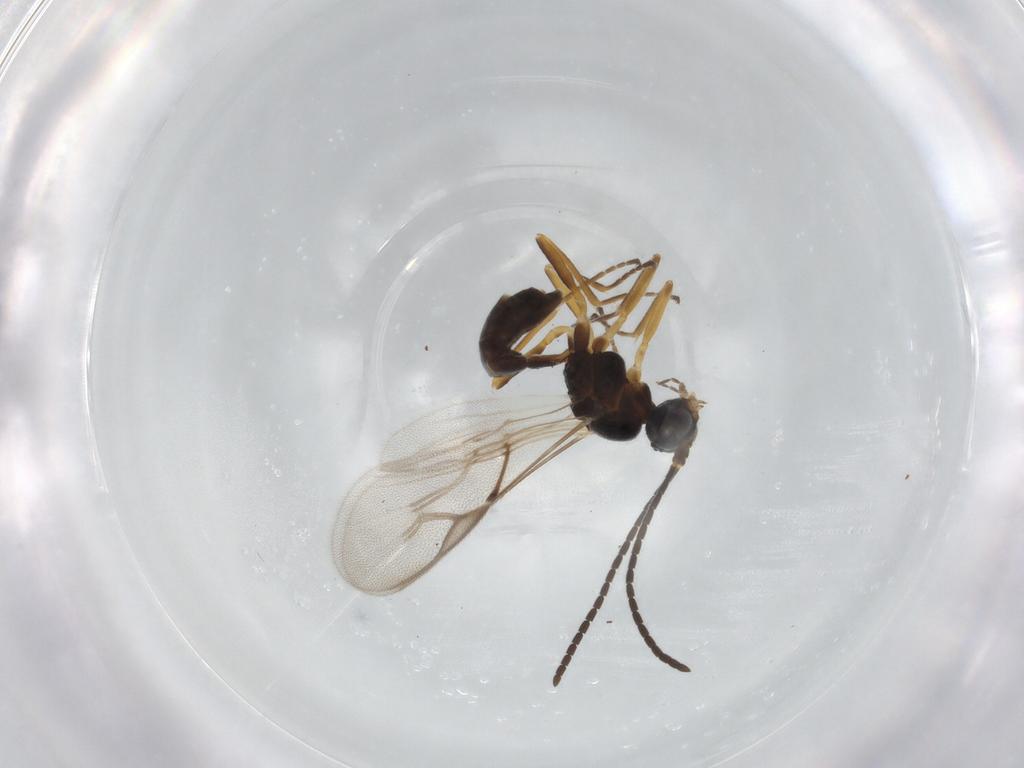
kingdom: Animalia
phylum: Arthropoda
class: Insecta
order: Hymenoptera
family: Braconidae
